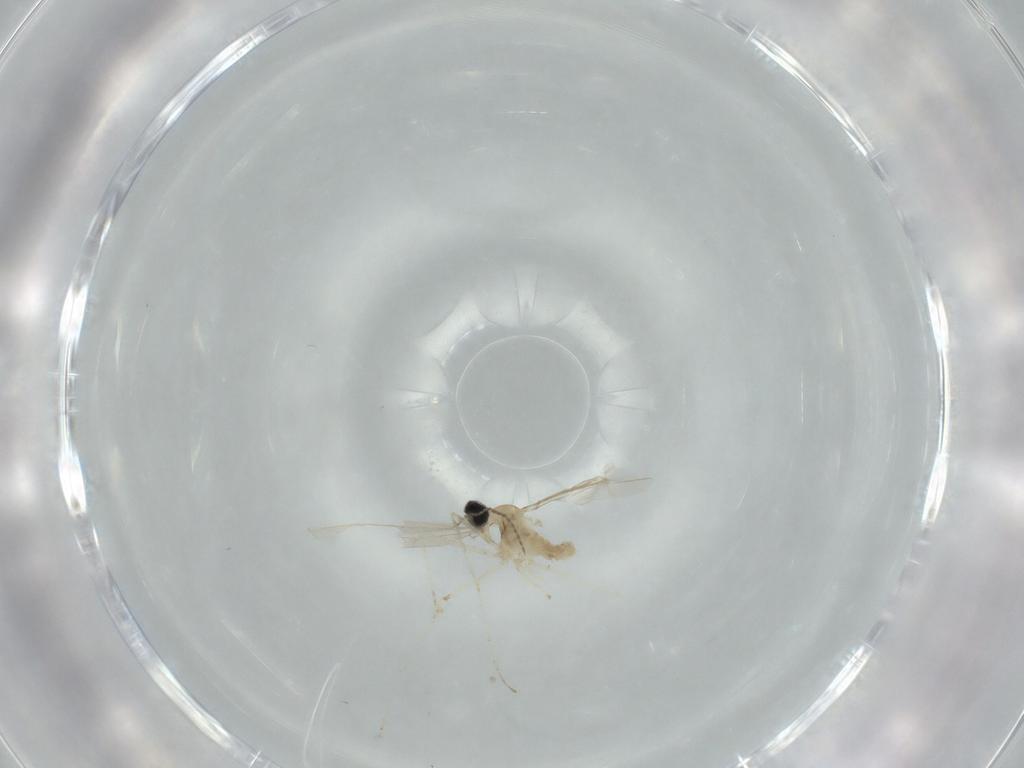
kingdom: Animalia
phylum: Arthropoda
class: Insecta
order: Diptera
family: Cecidomyiidae
